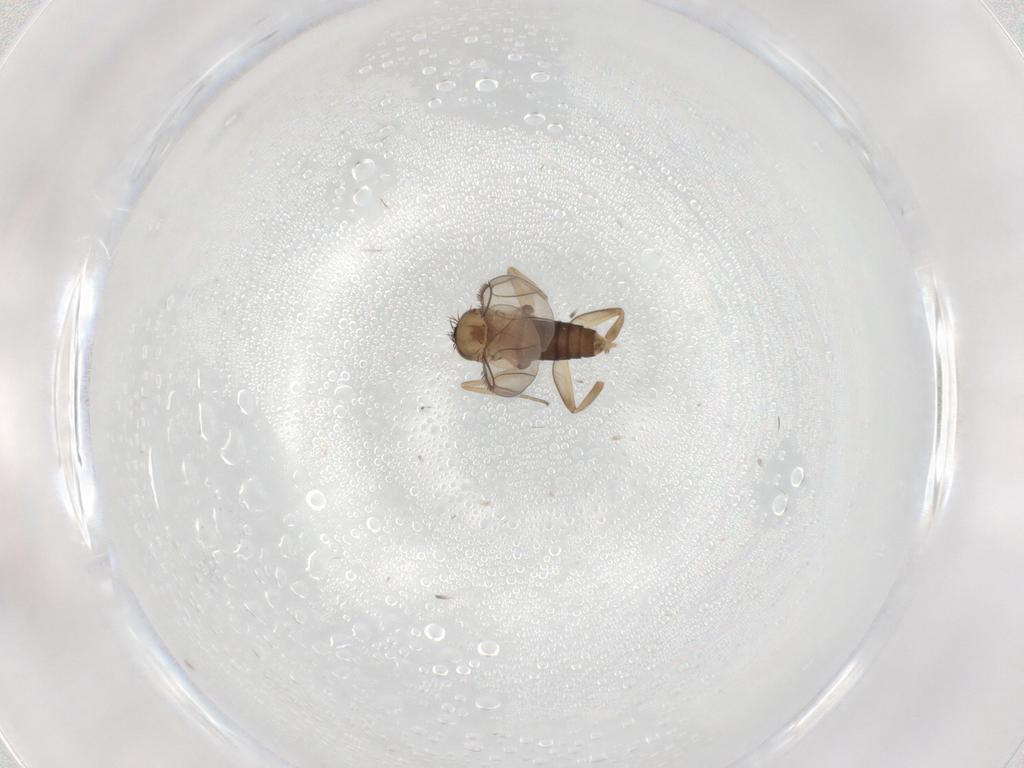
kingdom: Animalia
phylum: Arthropoda
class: Insecta
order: Diptera
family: Phoridae
